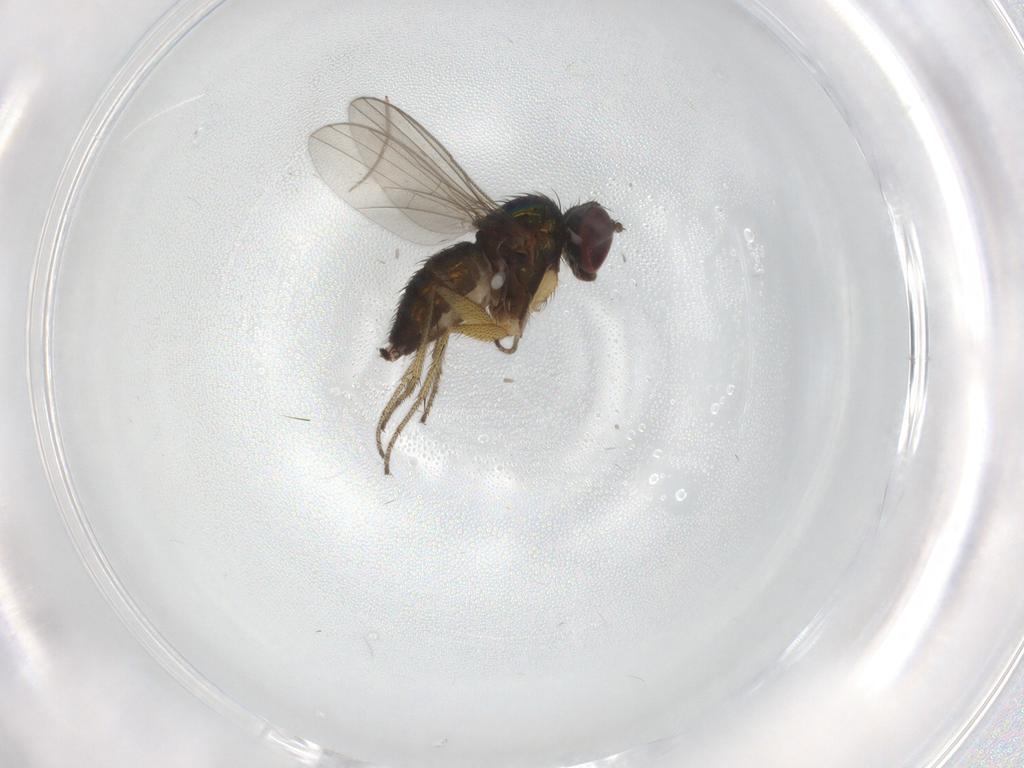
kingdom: Animalia
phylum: Arthropoda
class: Insecta
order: Diptera
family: Dolichopodidae
